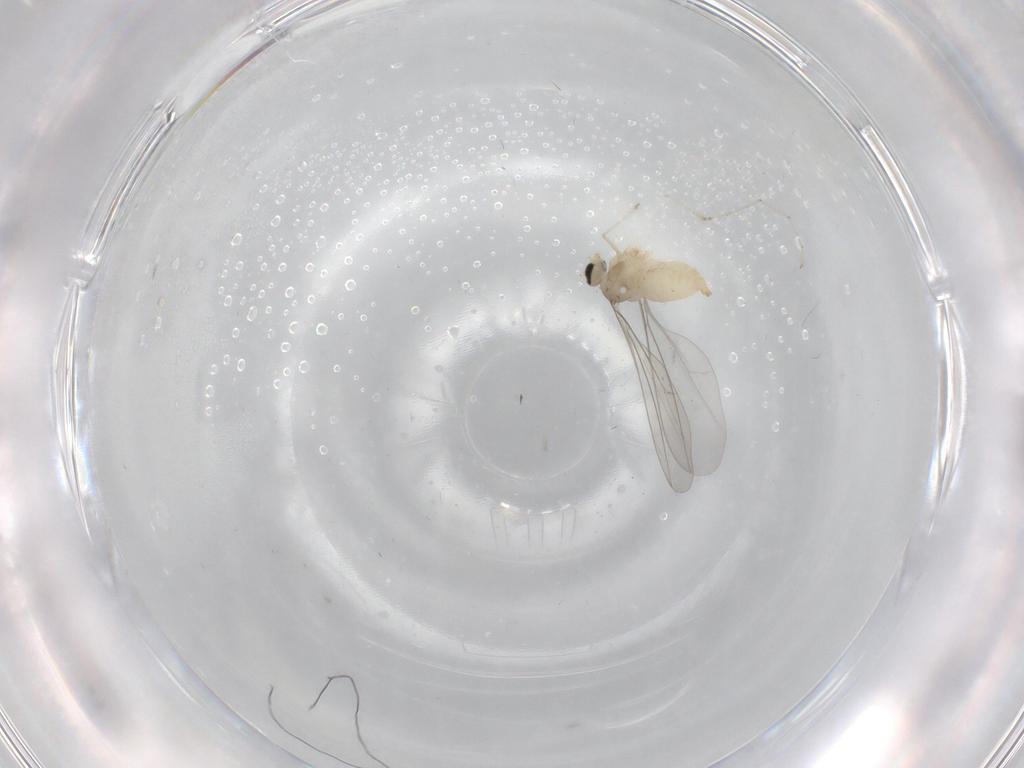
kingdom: Animalia
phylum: Arthropoda
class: Insecta
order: Diptera
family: Cecidomyiidae
